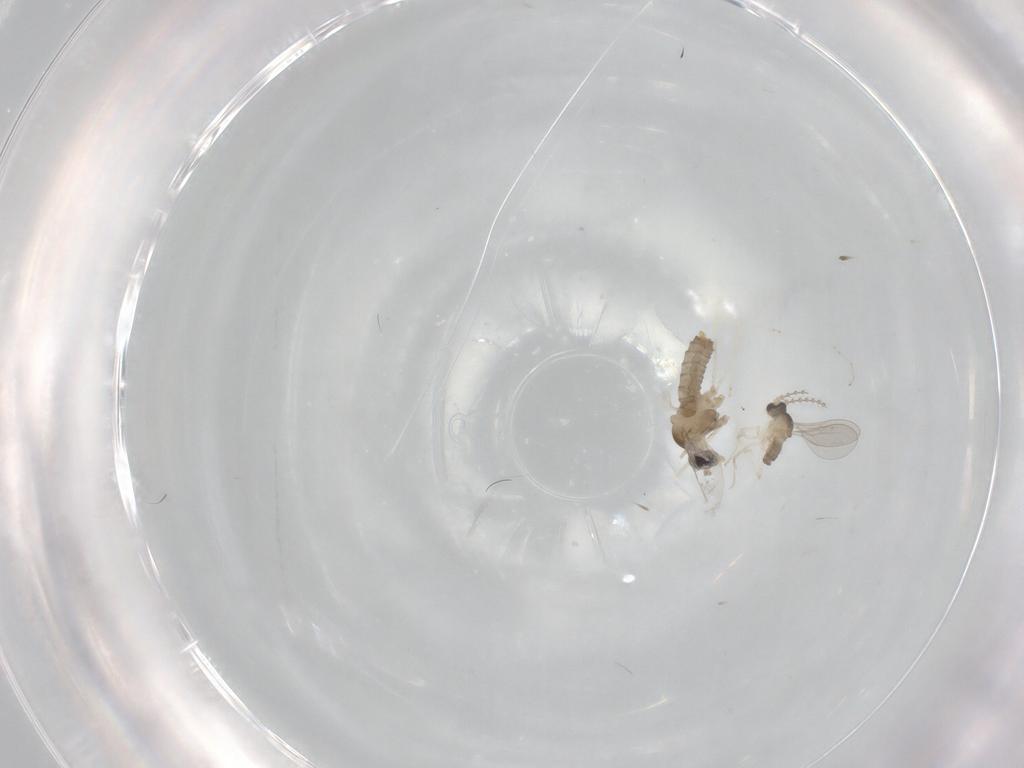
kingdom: Animalia
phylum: Arthropoda
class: Insecta
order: Diptera
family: Cecidomyiidae
